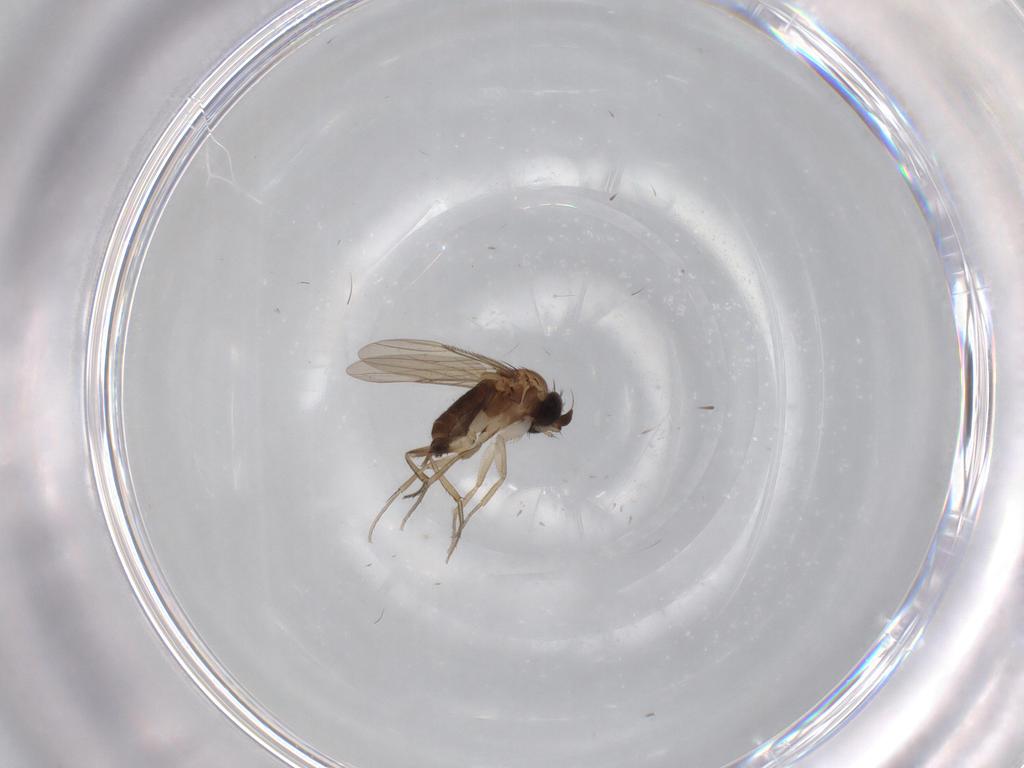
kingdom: Animalia
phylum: Arthropoda
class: Insecta
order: Diptera
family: Phoridae
